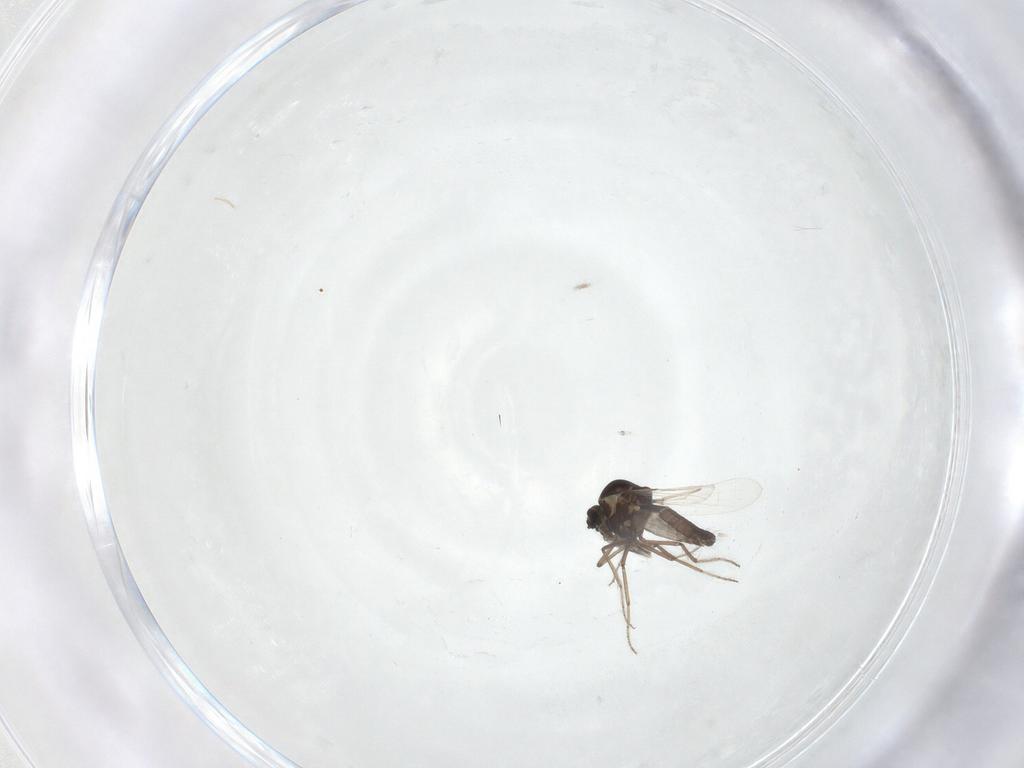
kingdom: Animalia
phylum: Arthropoda
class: Insecta
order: Diptera
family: Ceratopogonidae
